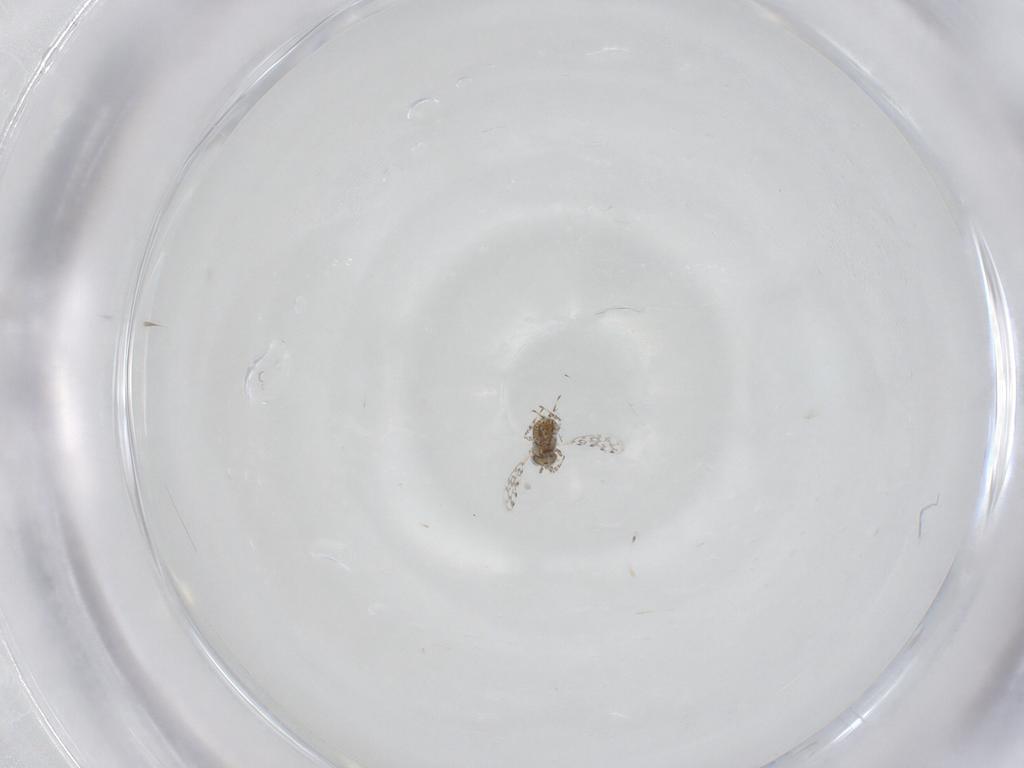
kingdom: Animalia
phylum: Arthropoda
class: Insecta
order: Hymenoptera
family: Aphelinidae
